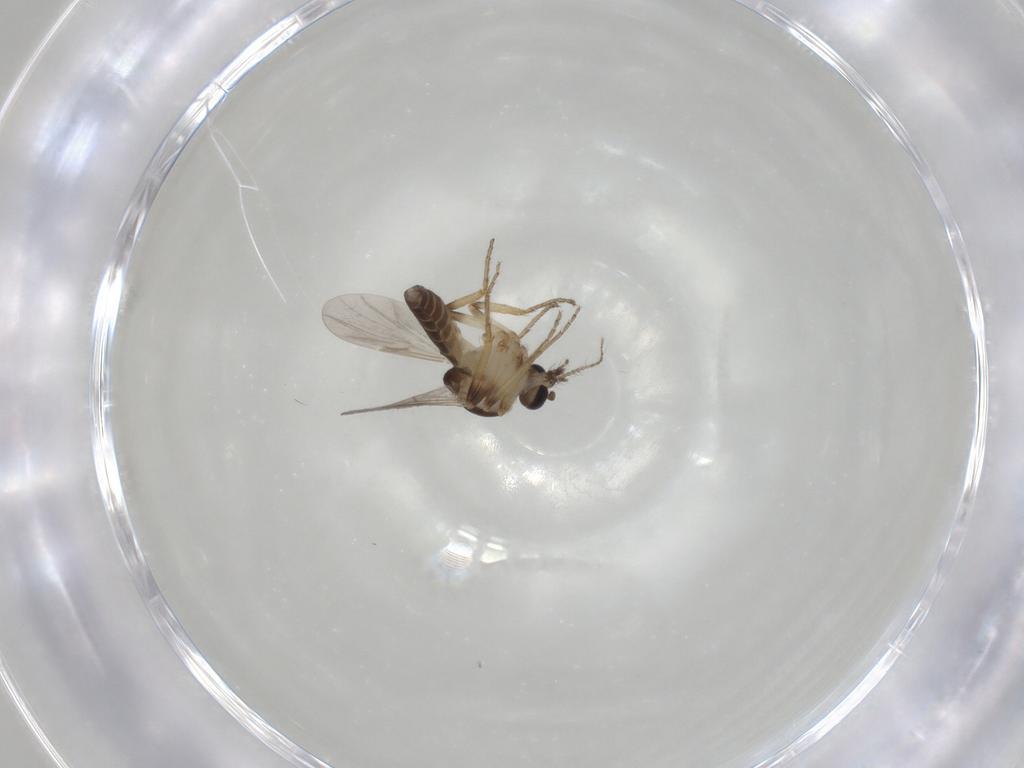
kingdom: Animalia
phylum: Arthropoda
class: Insecta
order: Diptera
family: Ceratopogonidae
